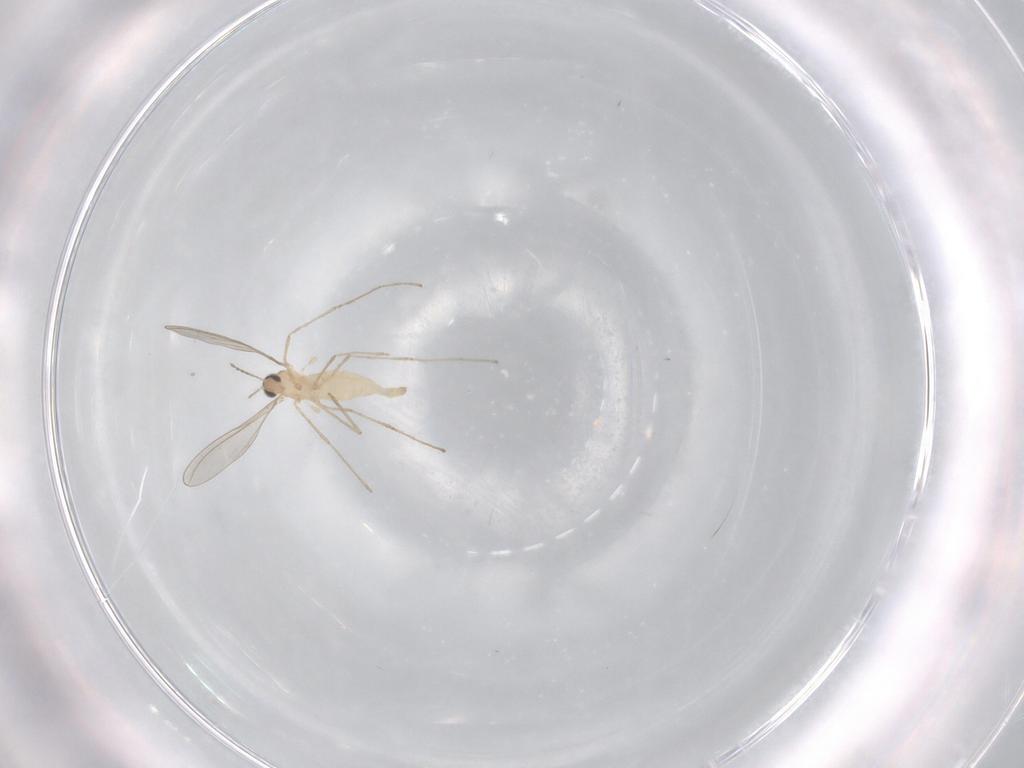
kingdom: Animalia
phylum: Arthropoda
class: Insecta
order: Diptera
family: Cecidomyiidae
